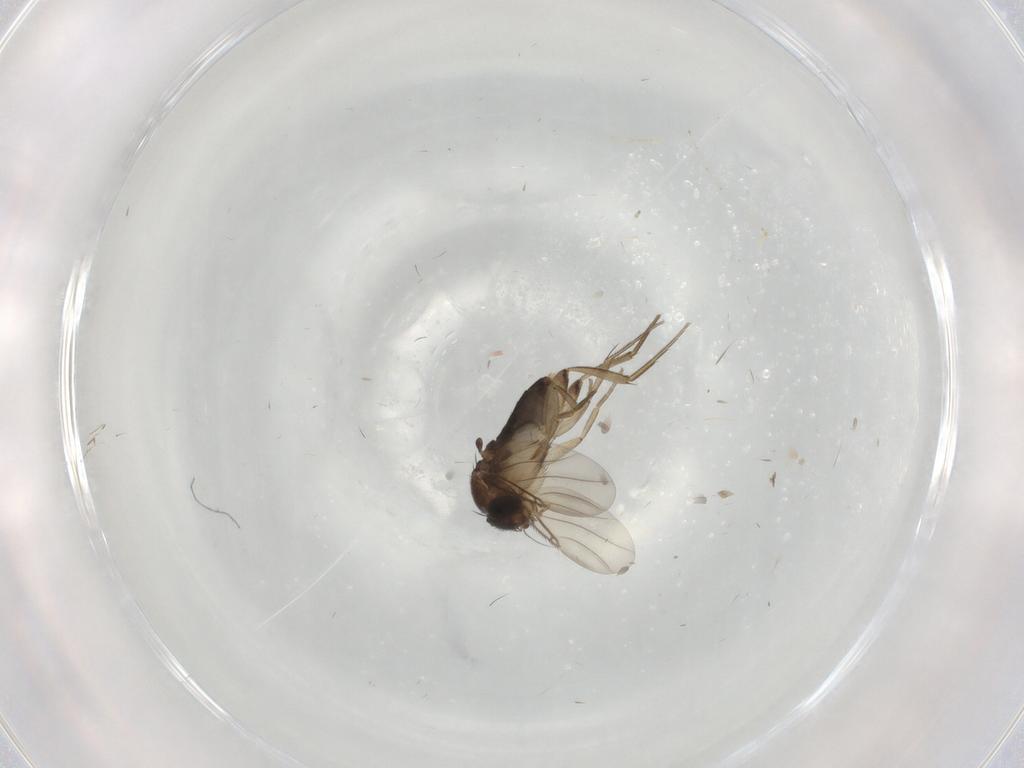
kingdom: Animalia
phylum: Arthropoda
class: Insecta
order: Diptera
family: Phoridae
